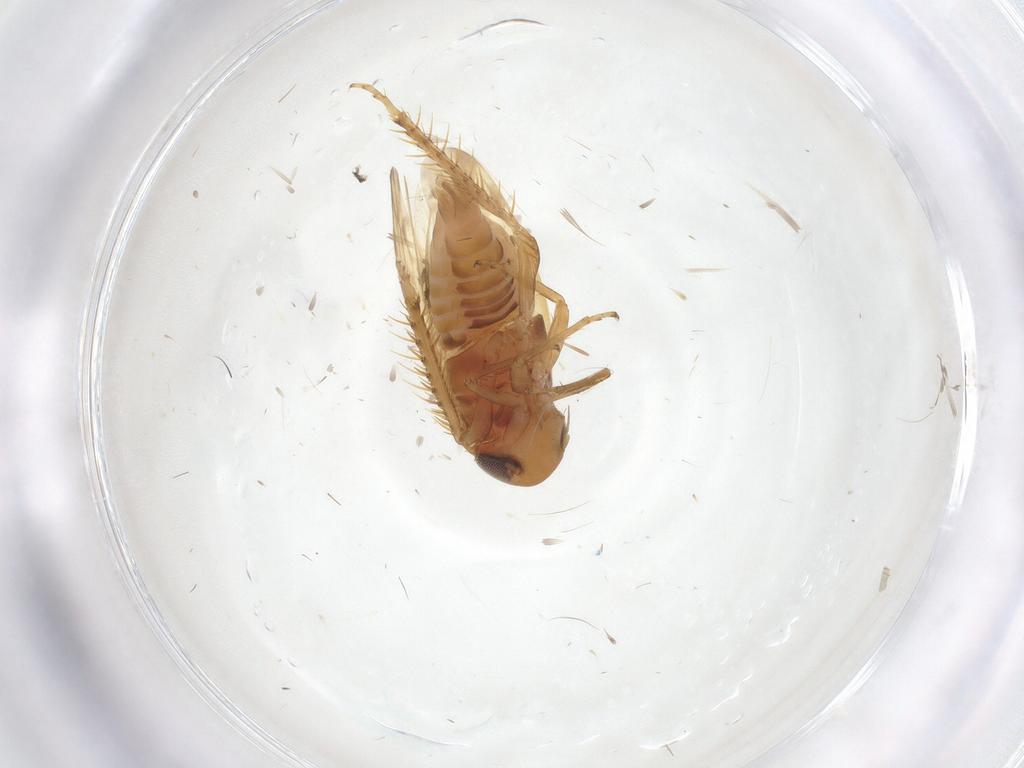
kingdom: Animalia
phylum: Arthropoda
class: Insecta
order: Hemiptera
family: Cicadellidae
